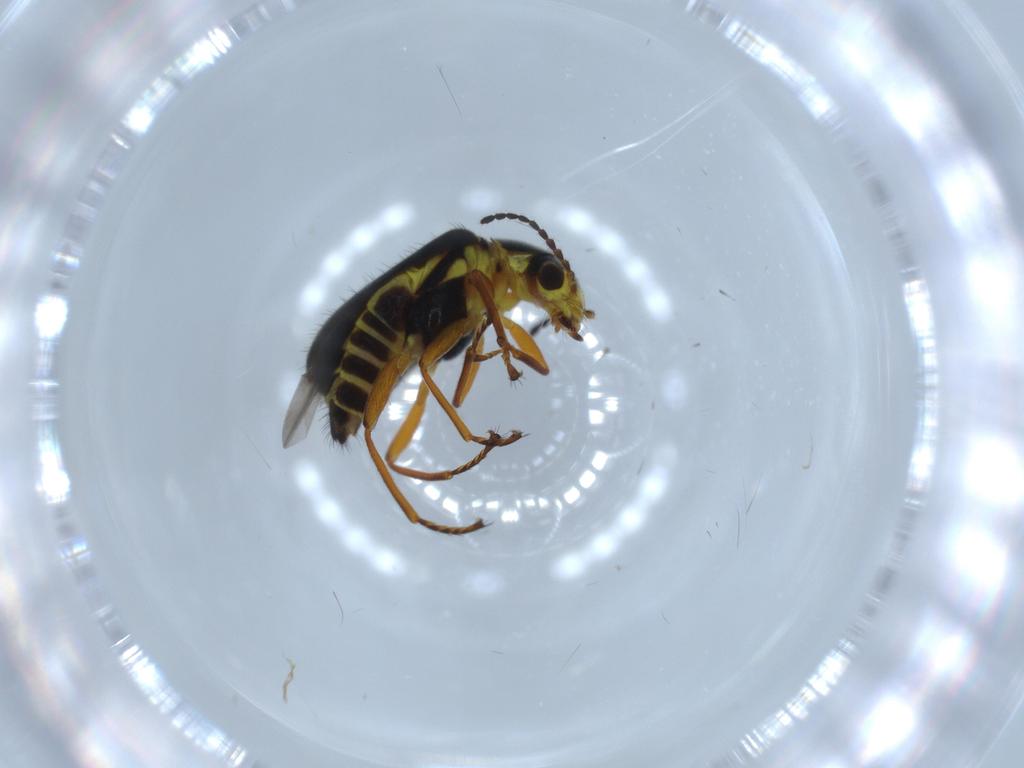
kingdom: Animalia
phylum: Arthropoda
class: Insecta
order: Coleoptera
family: Melyridae
